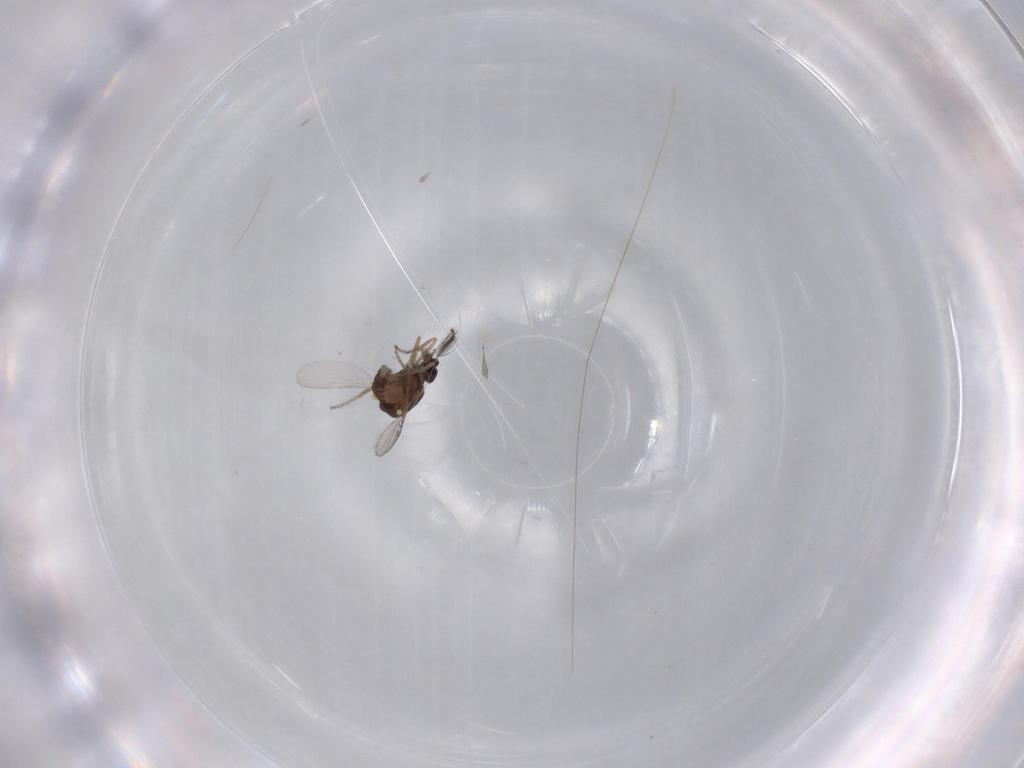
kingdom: Animalia
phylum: Arthropoda
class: Insecta
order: Diptera
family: Ceratopogonidae
